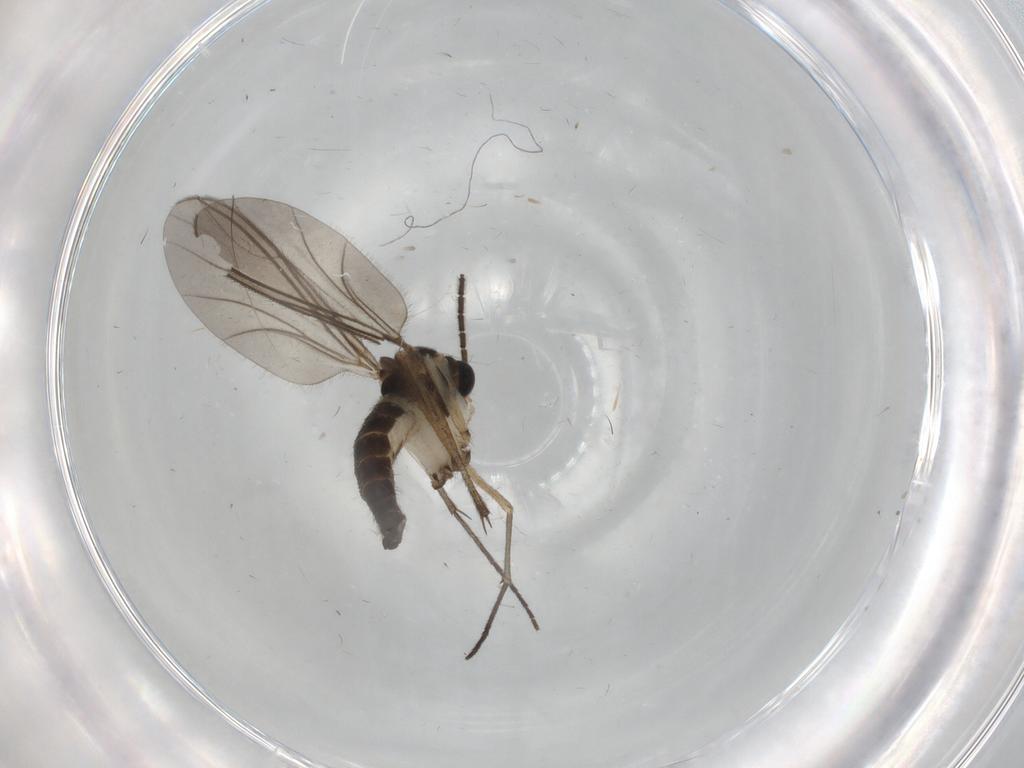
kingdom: Animalia
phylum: Arthropoda
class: Insecta
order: Diptera
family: Sciaridae
